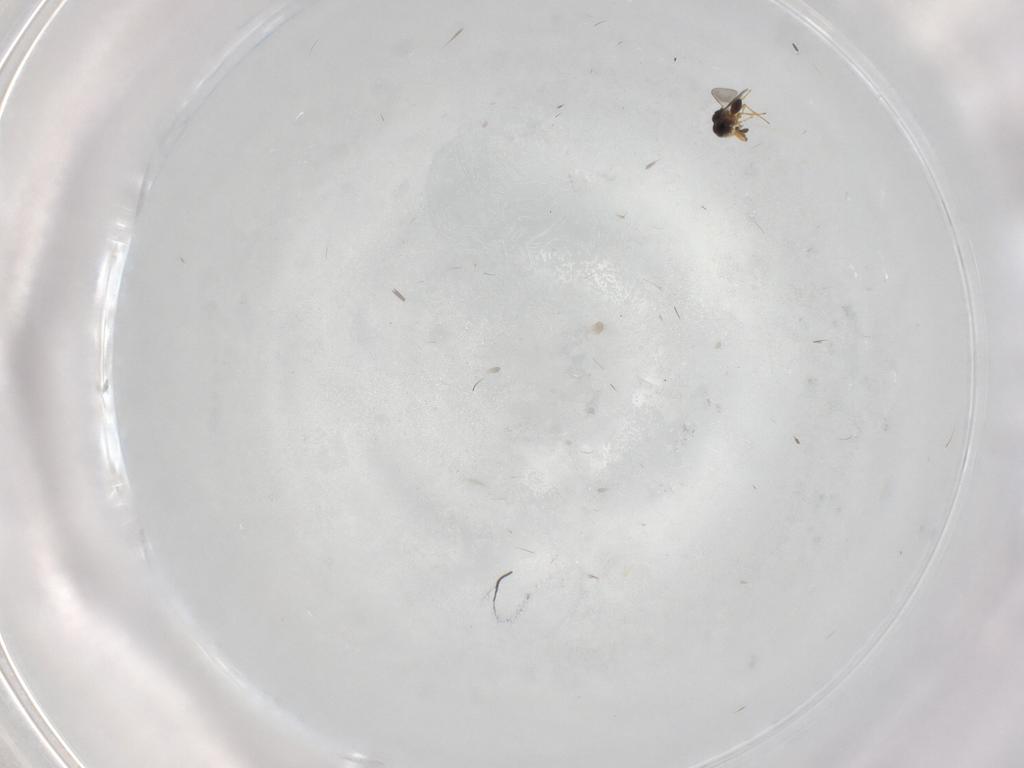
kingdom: Animalia
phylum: Arthropoda
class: Insecta
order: Hymenoptera
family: Platygastridae
